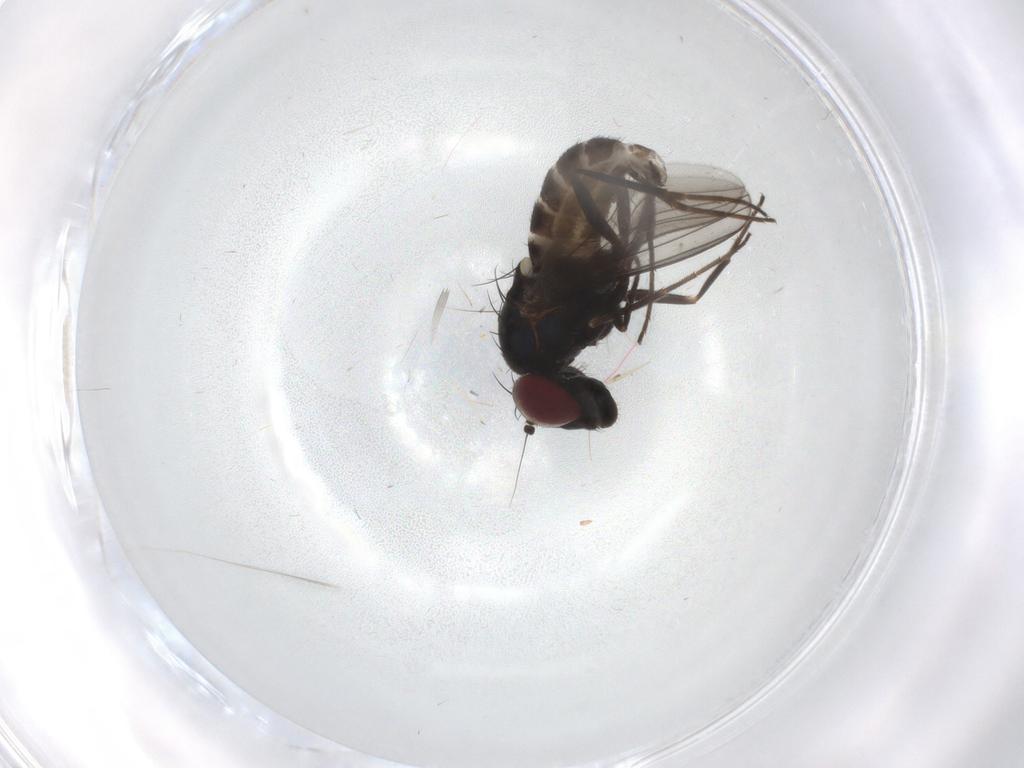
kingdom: Animalia
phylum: Arthropoda
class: Insecta
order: Diptera
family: Dolichopodidae
